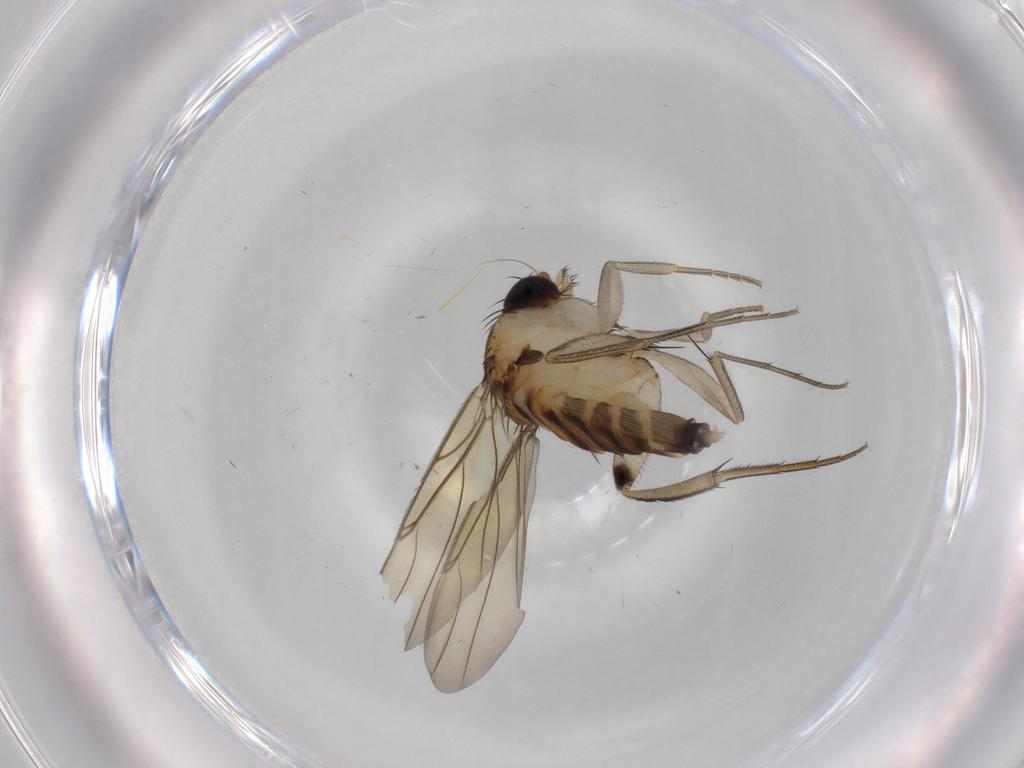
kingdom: Animalia
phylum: Arthropoda
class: Insecta
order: Diptera
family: Phoridae
